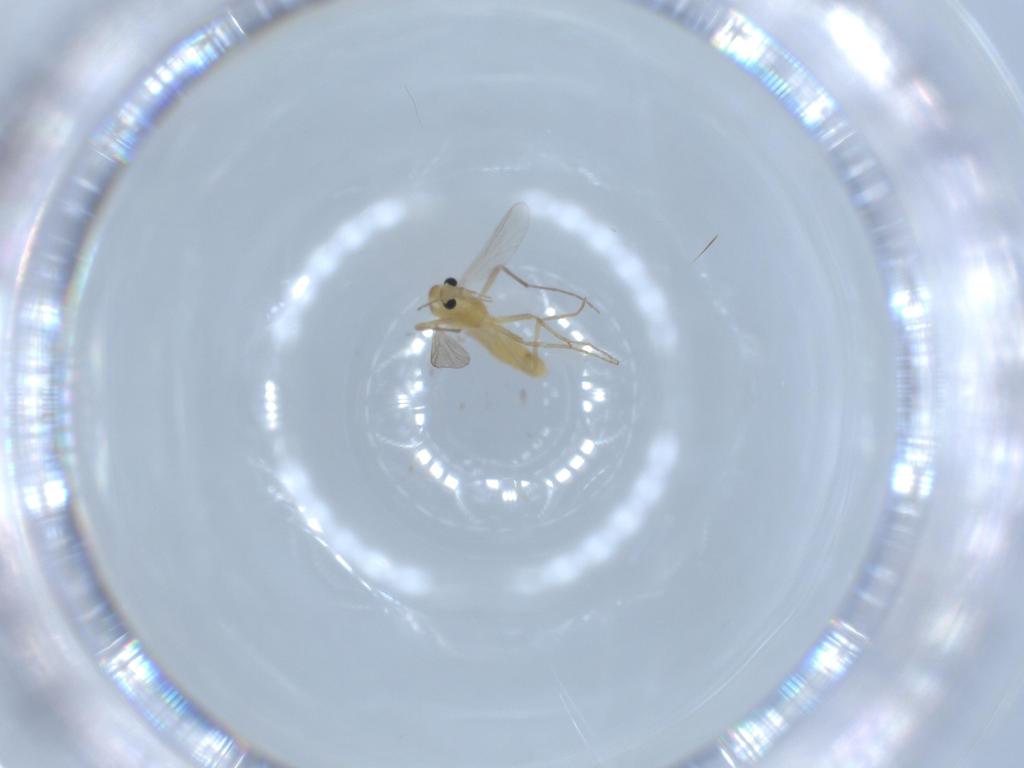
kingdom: Animalia
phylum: Arthropoda
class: Insecta
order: Diptera
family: Chironomidae
